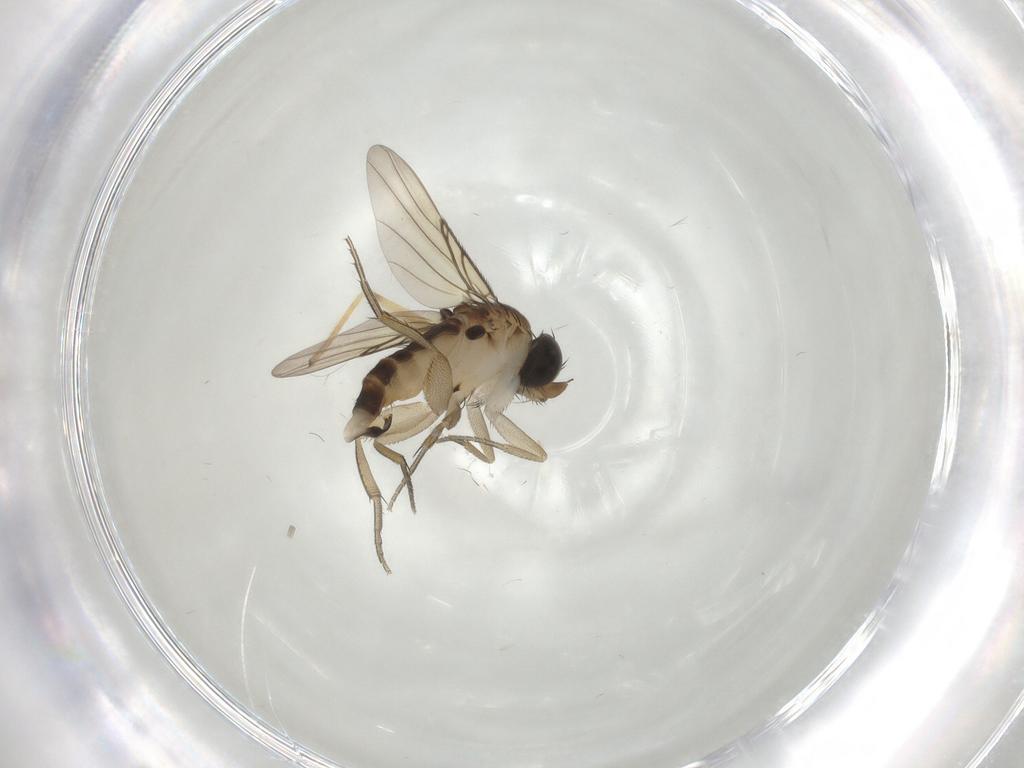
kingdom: Animalia
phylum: Arthropoda
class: Insecta
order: Diptera
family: Chironomidae
